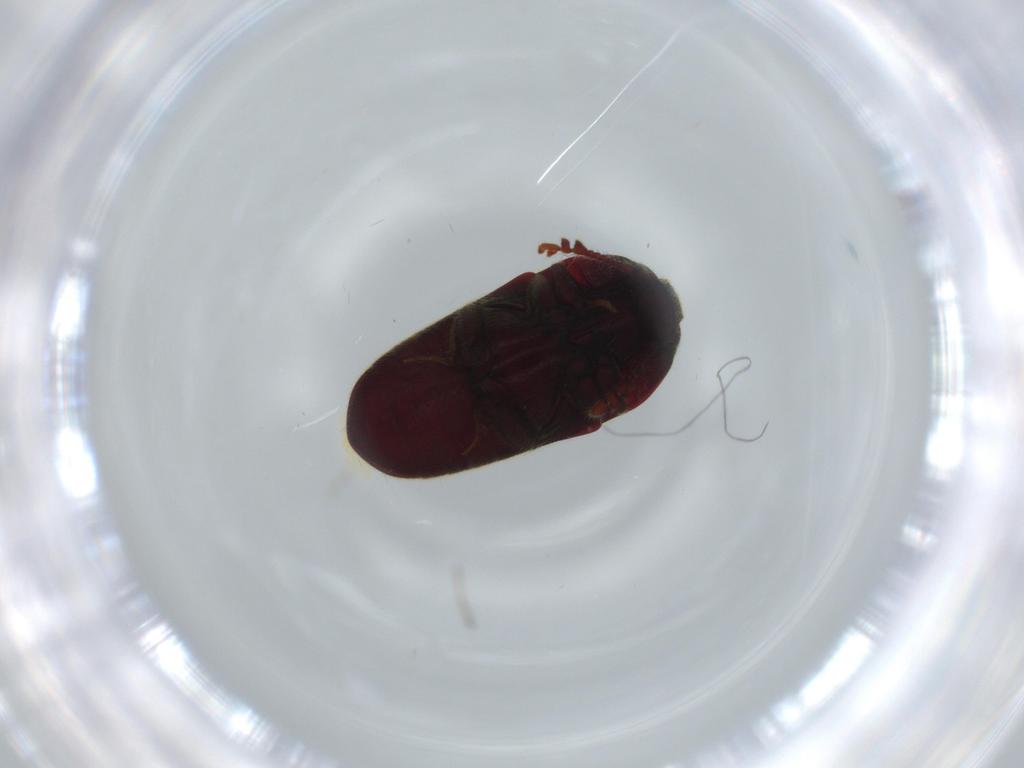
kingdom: Animalia
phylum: Arthropoda
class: Insecta
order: Coleoptera
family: Throscidae
